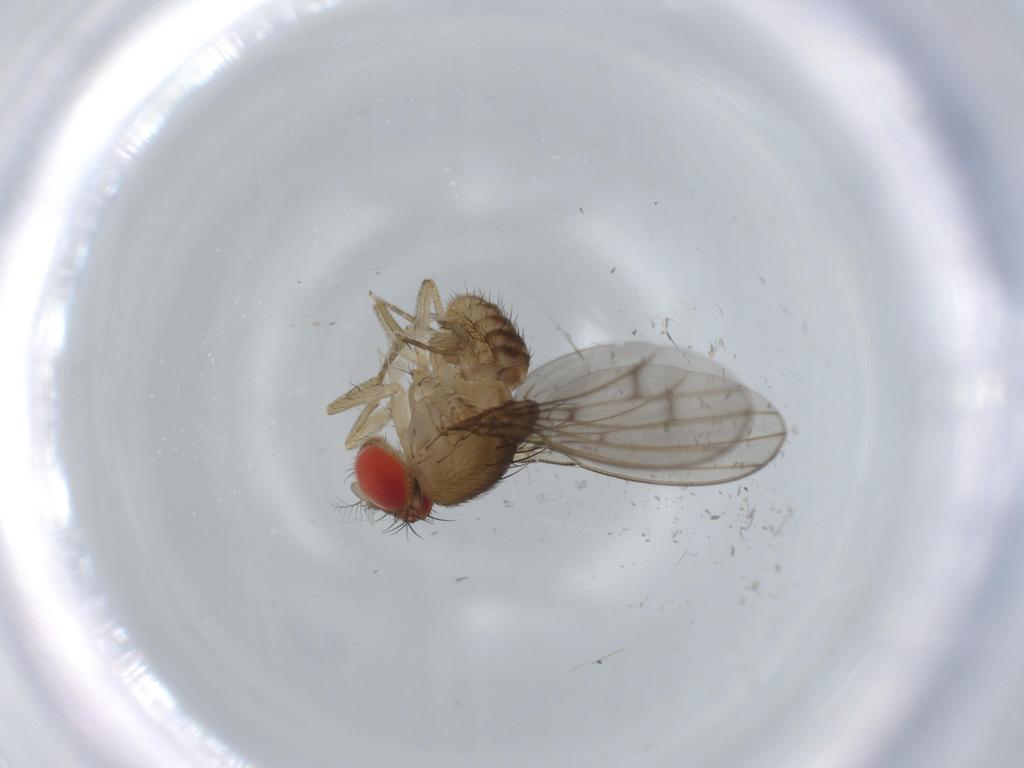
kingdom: Animalia
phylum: Arthropoda
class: Insecta
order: Diptera
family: Drosophilidae
